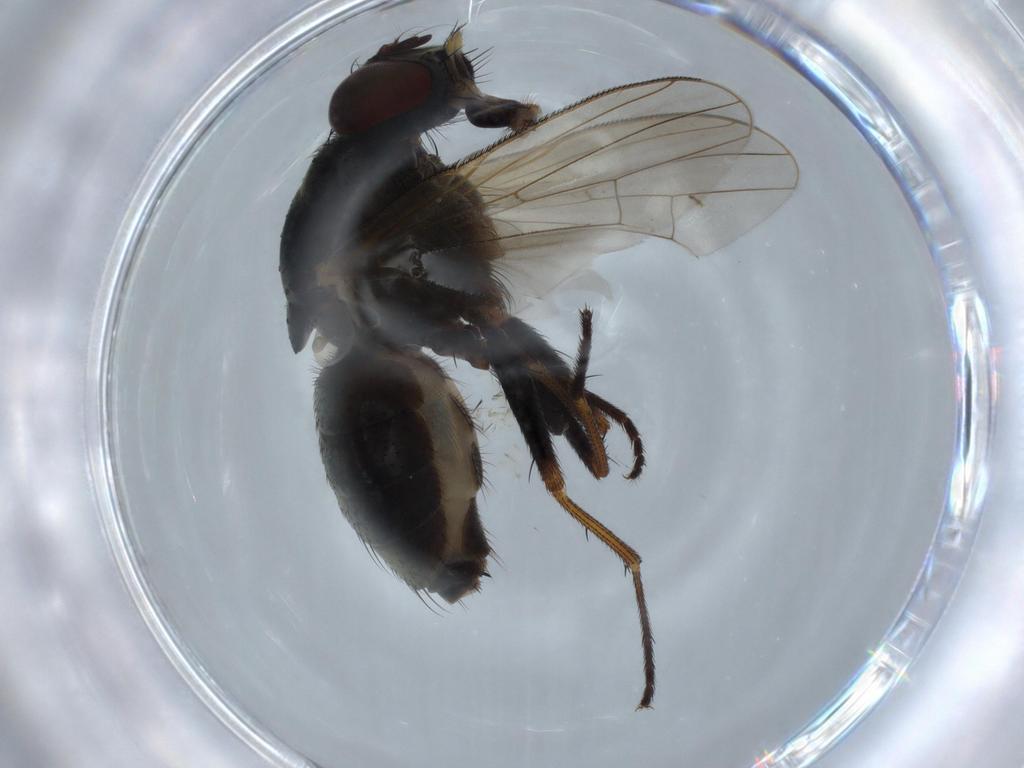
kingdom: Animalia
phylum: Arthropoda
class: Insecta
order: Diptera
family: Muscidae
